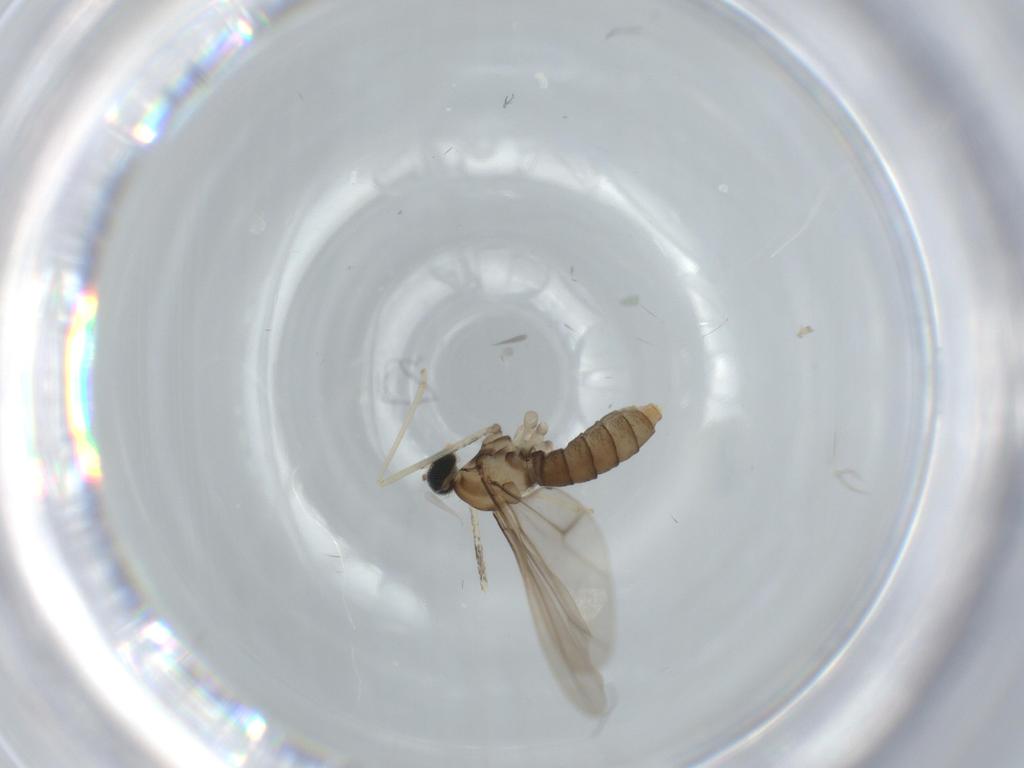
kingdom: Animalia
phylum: Arthropoda
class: Insecta
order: Diptera
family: Cecidomyiidae
